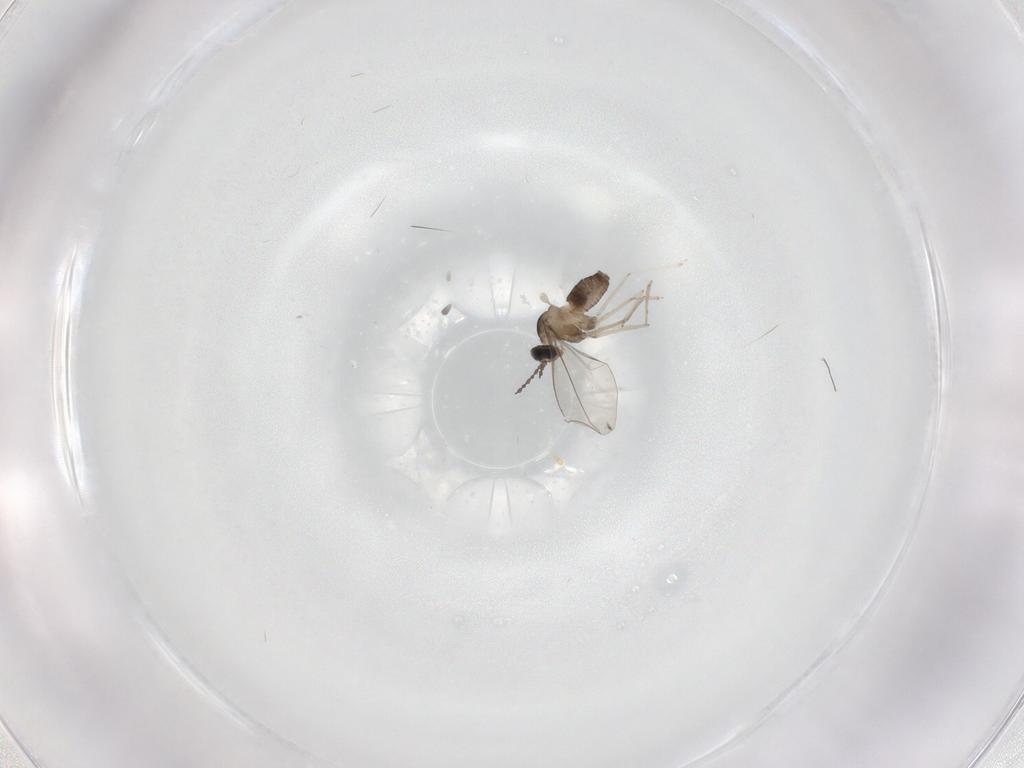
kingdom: Animalia
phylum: Arthropoda
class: Insecta
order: Diptera
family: Cecidomyiidae
